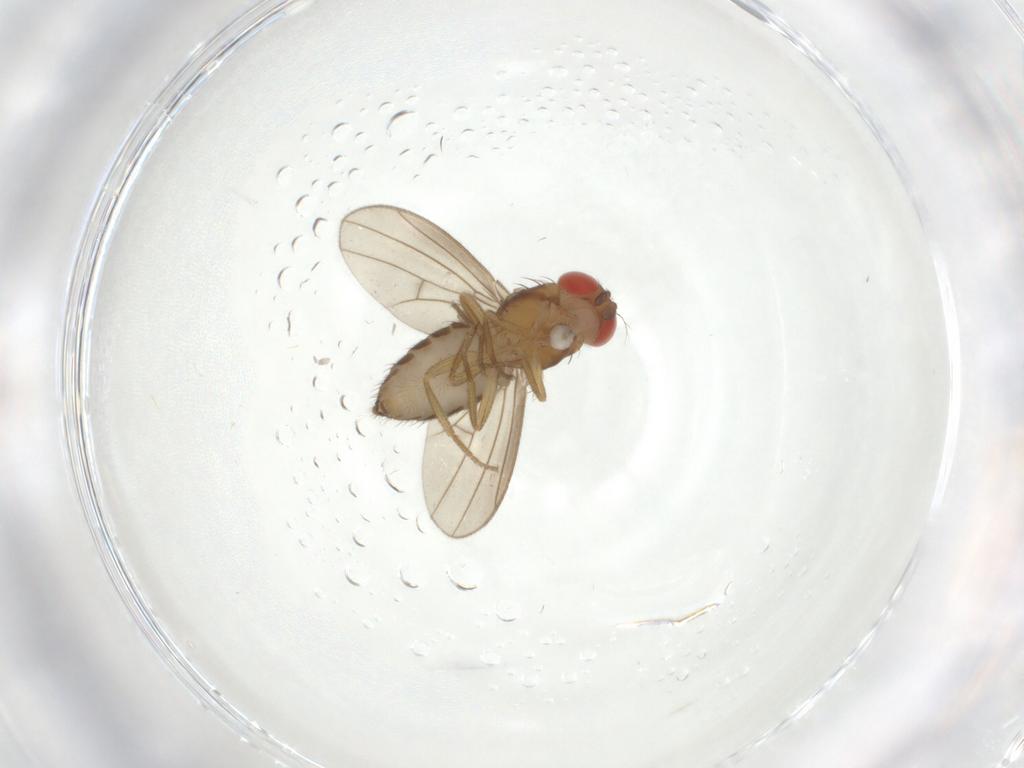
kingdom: Animalia
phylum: Arthropoda
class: Insecta
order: Diptera
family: Drosophilidae
